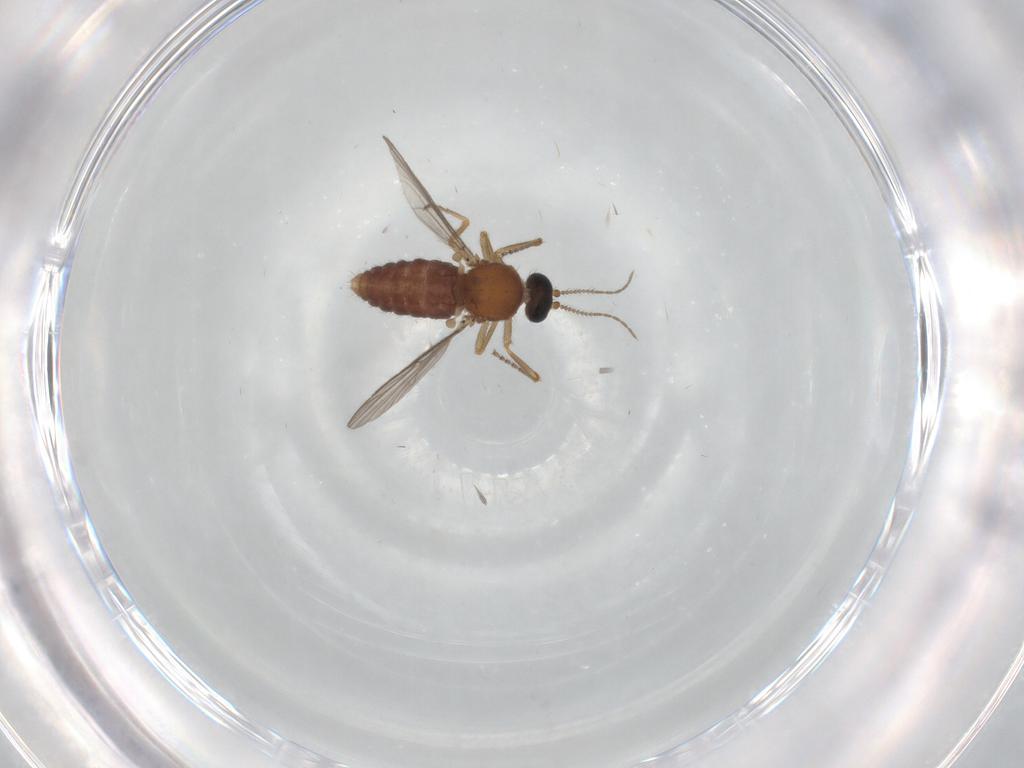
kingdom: Animalia
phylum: Arthropoda
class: Insecta
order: Diptera
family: Ceratopogonidae
